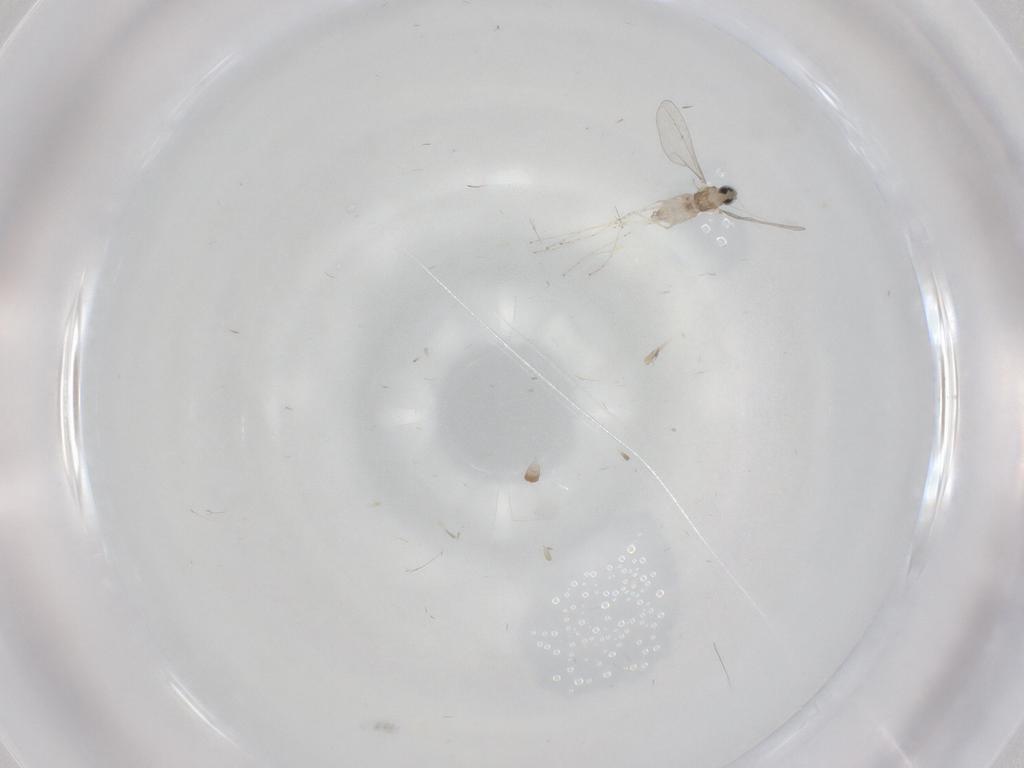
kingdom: Animalia
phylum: Arthropoda
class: Insecta
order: Diptera
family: Cecidomyiidae
